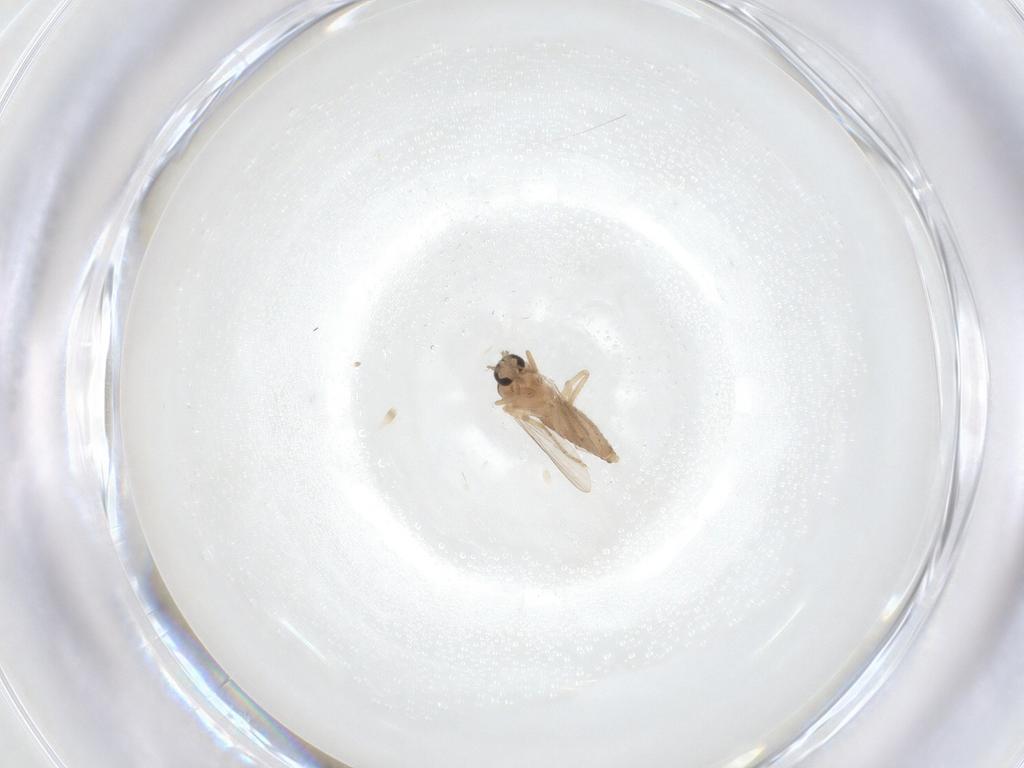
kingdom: Animalia
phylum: Arthropoda
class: Insecta
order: Diptera
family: Ceratopogonidae
